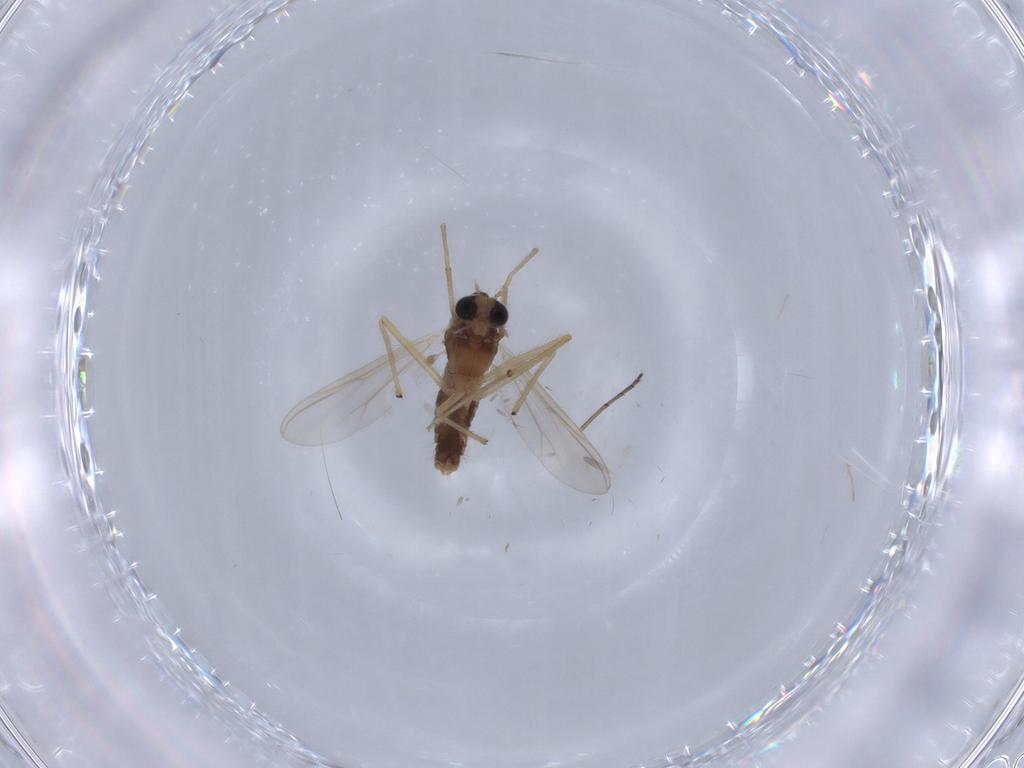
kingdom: Animalia
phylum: Arthropoda
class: Insecta
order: Diptera
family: Chironomidae
